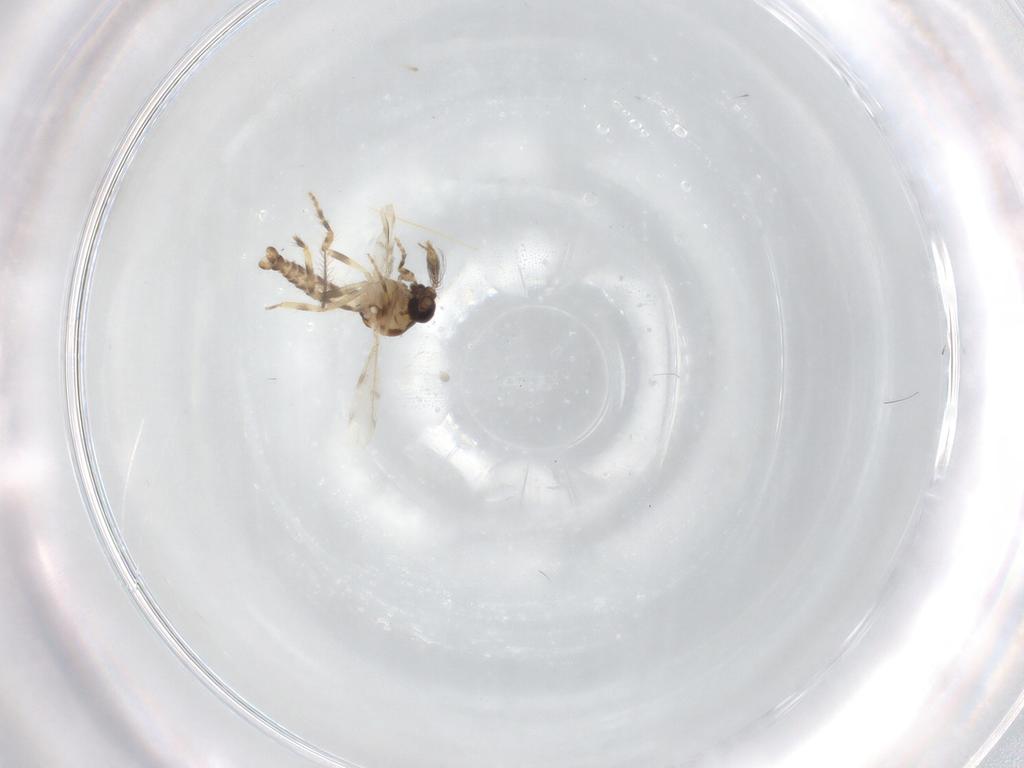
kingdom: Animalia
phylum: Arthropoda
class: Insecta
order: Diptera
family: Ceratopogonidae
